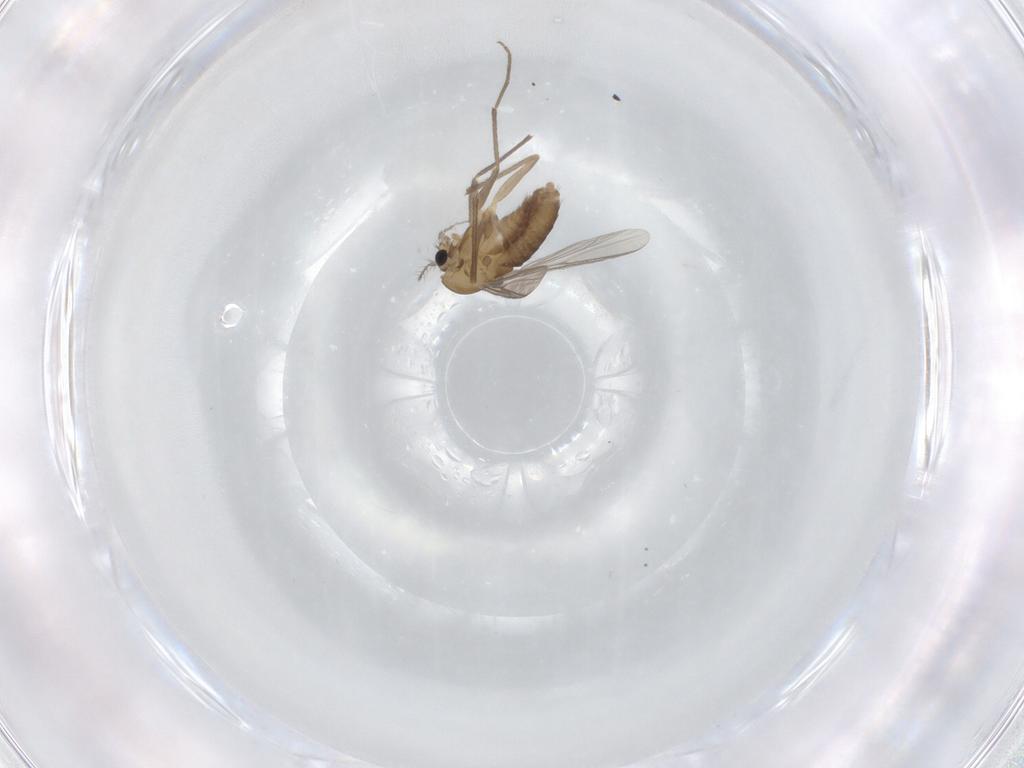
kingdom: Animalia
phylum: Arthropoda
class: Insecta
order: Diptera
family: Chironomidae
